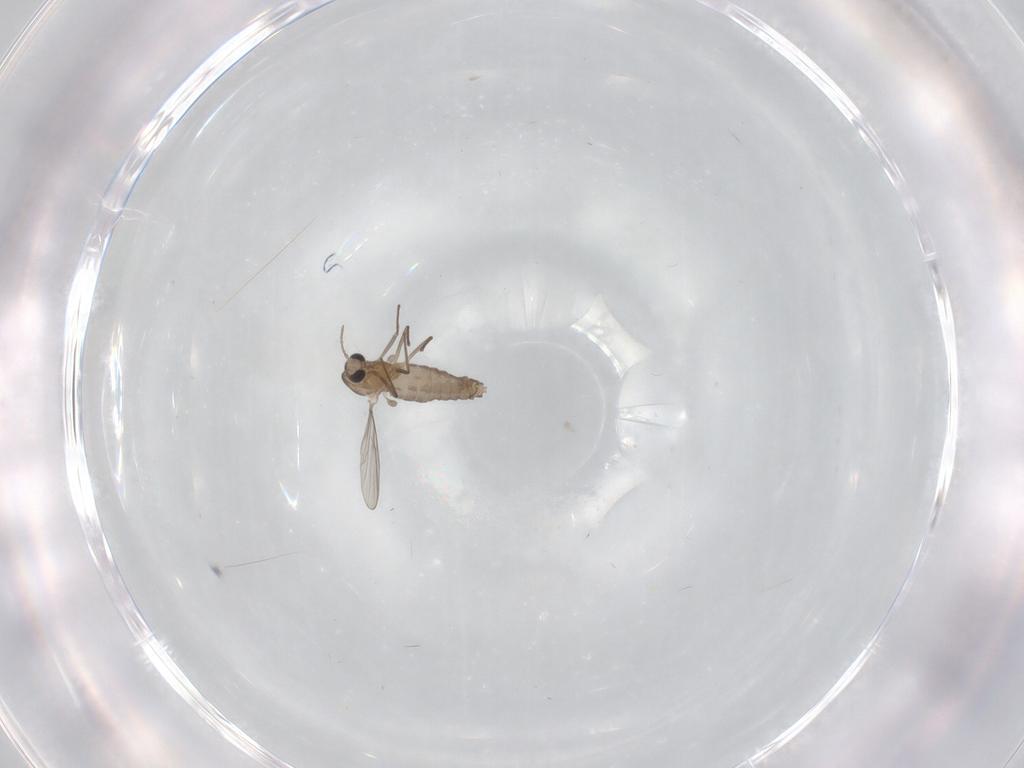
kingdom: Animalia
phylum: Arthropoda
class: Insecta
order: Diptera
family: Chironomidae
